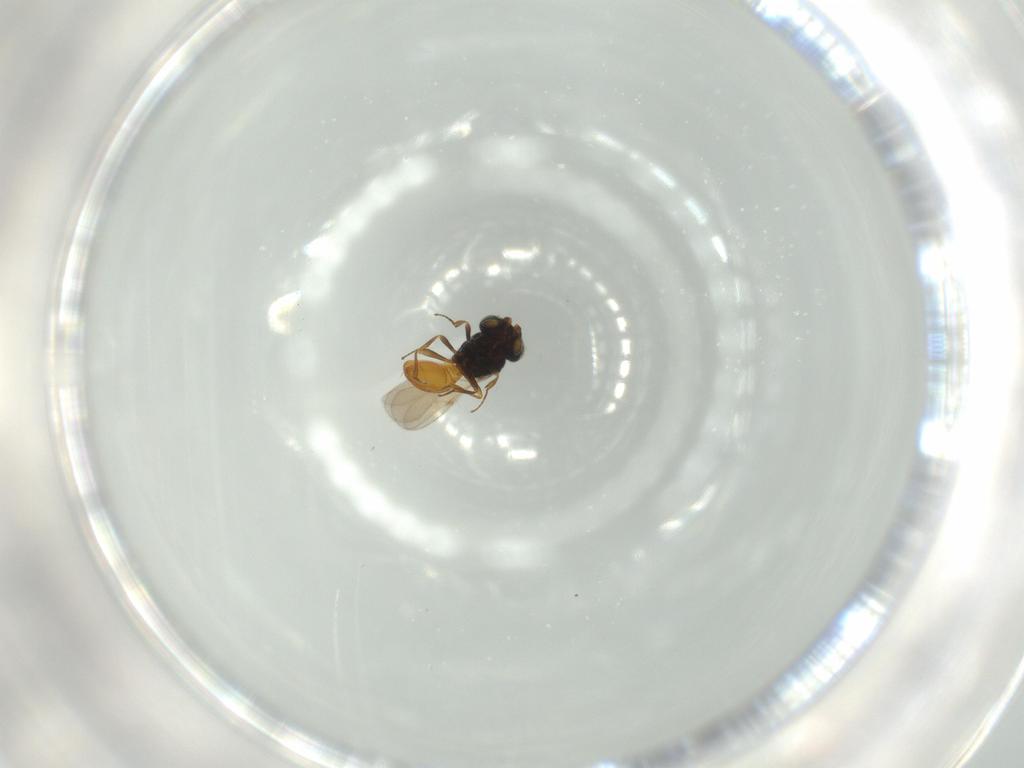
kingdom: Animalia
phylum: Arthropoda
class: Insecta
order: Hymenoptera
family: Scelionidae
